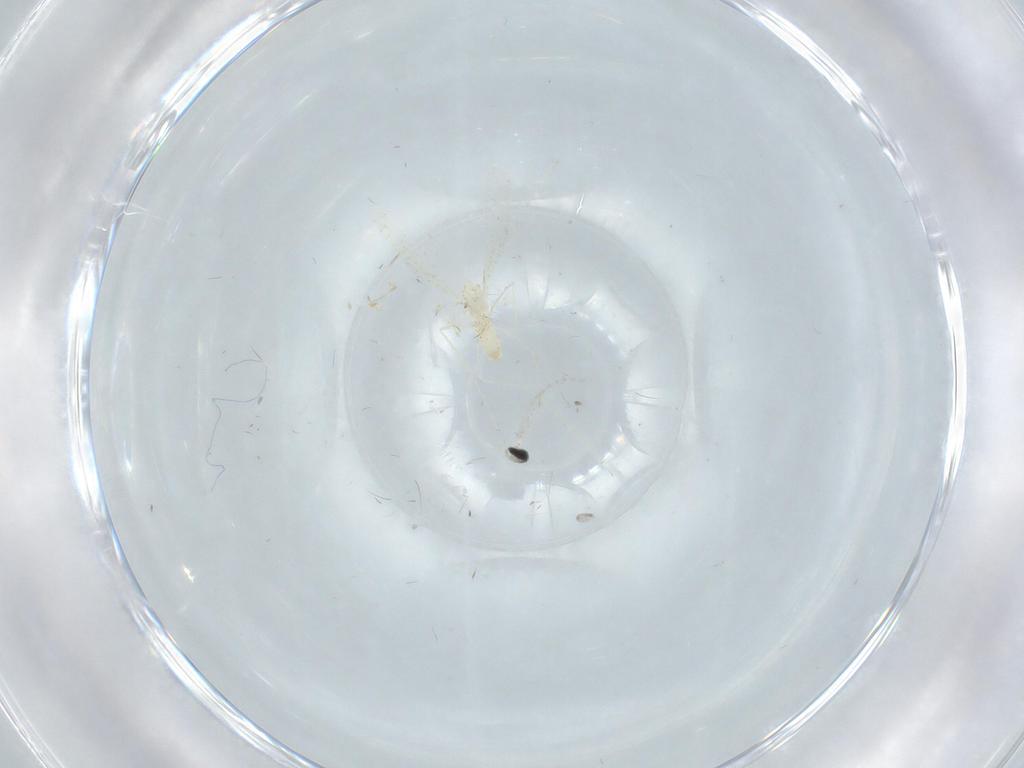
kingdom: Animalia
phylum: Arthropoda
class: Insecta
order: Diptera
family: Cecidomyiidae
